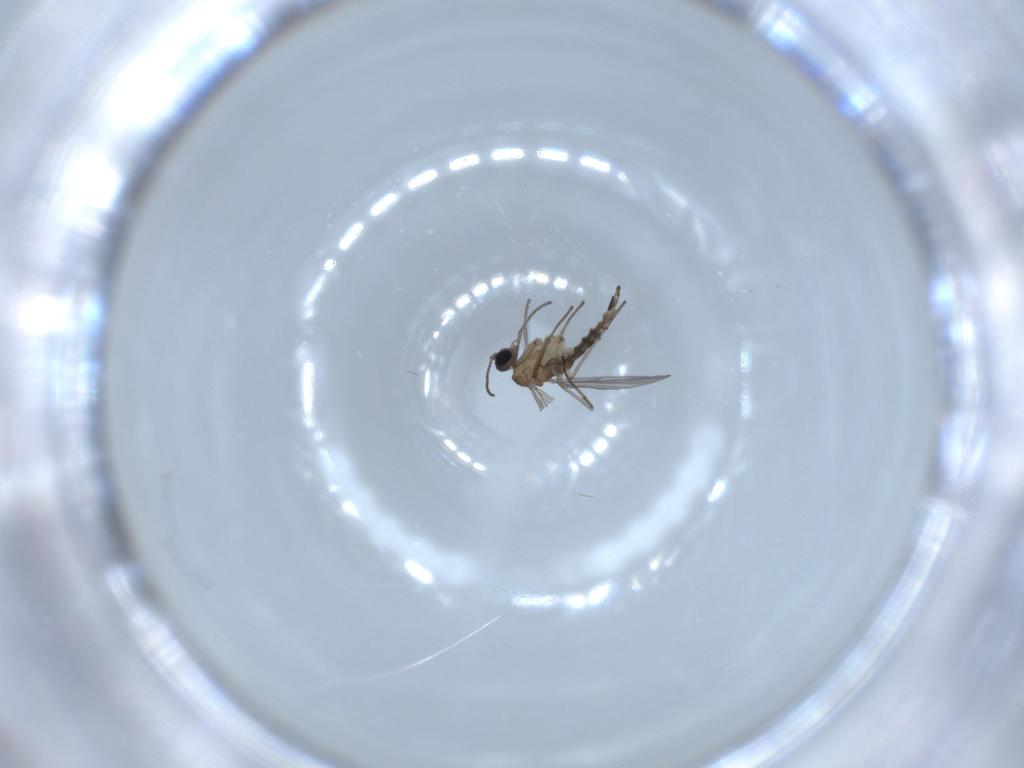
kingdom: Animalia
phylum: Arthropoda
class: Insecta
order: Diptera
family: Sciaridae
